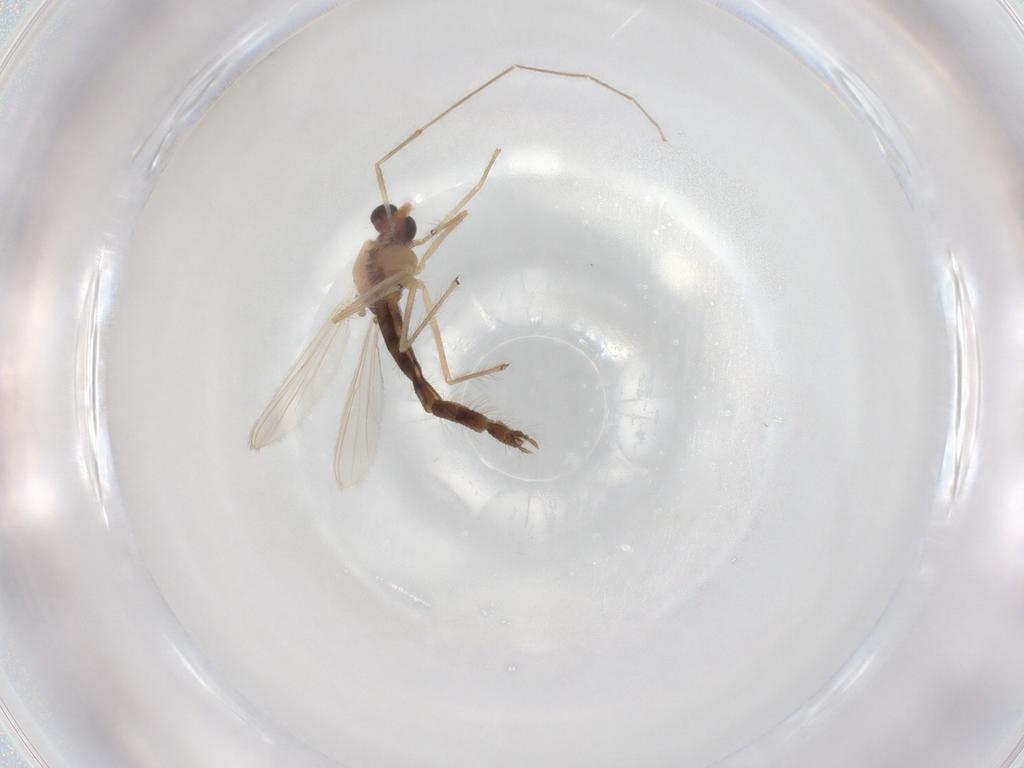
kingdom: Animalia
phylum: Arthropoda
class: Insecta
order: Diptera
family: Chironomidae
